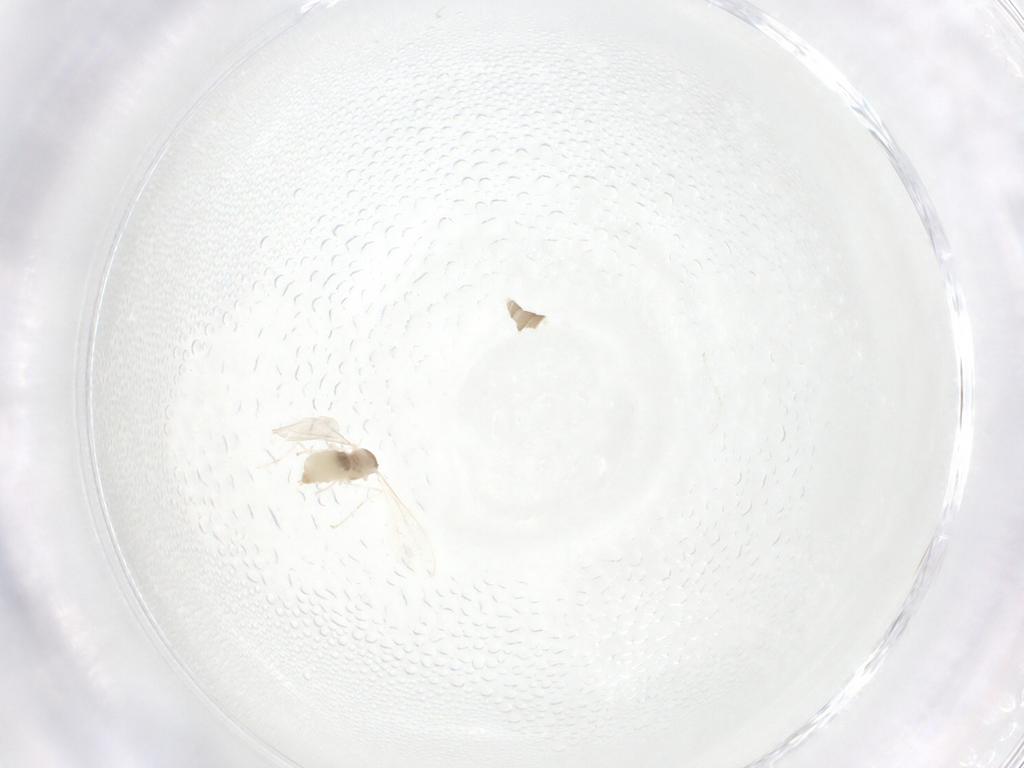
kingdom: Animalia
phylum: Arthropoda
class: Insecta
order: Diptera
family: Cecidomyiidae
